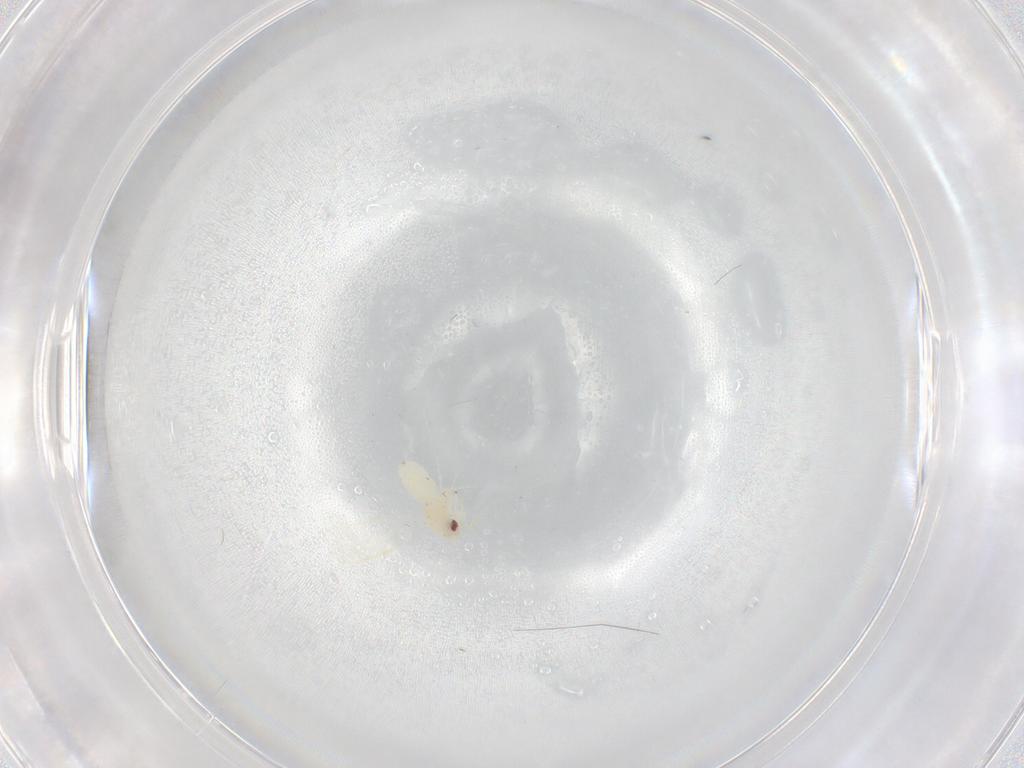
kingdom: Animalia
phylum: Arthropoda
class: Insecta
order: Hemiptera
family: Aleyrodidae
